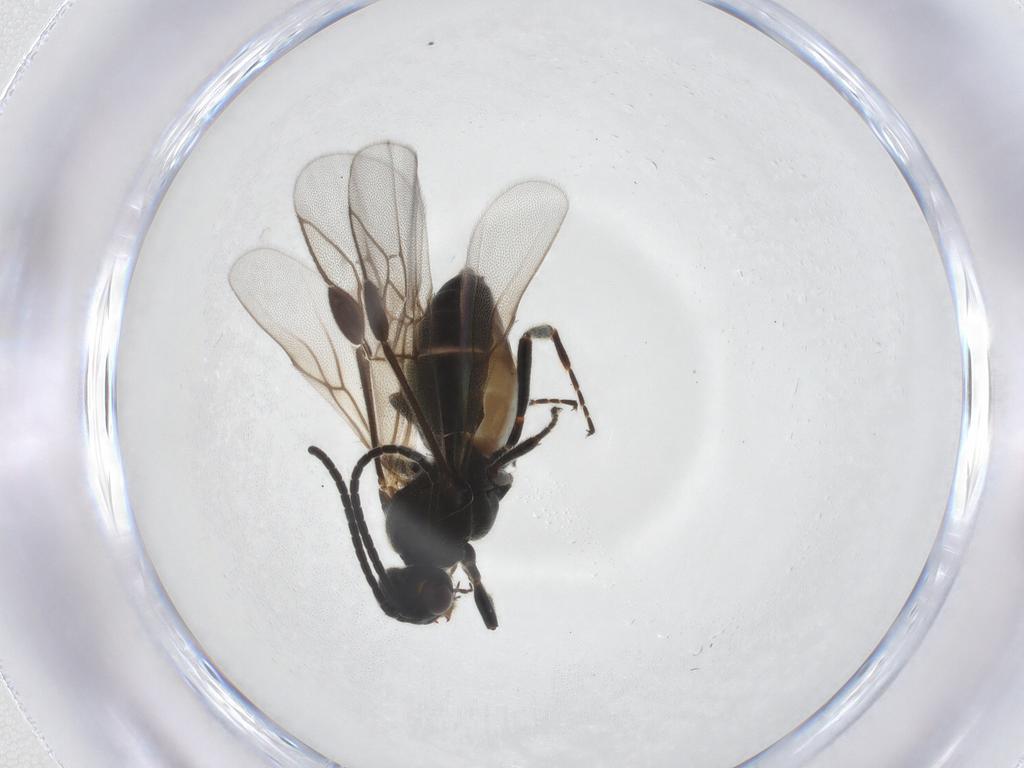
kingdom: Animalia
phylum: Arthropoda
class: Insecta
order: Hymenoptera
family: Braconidae
